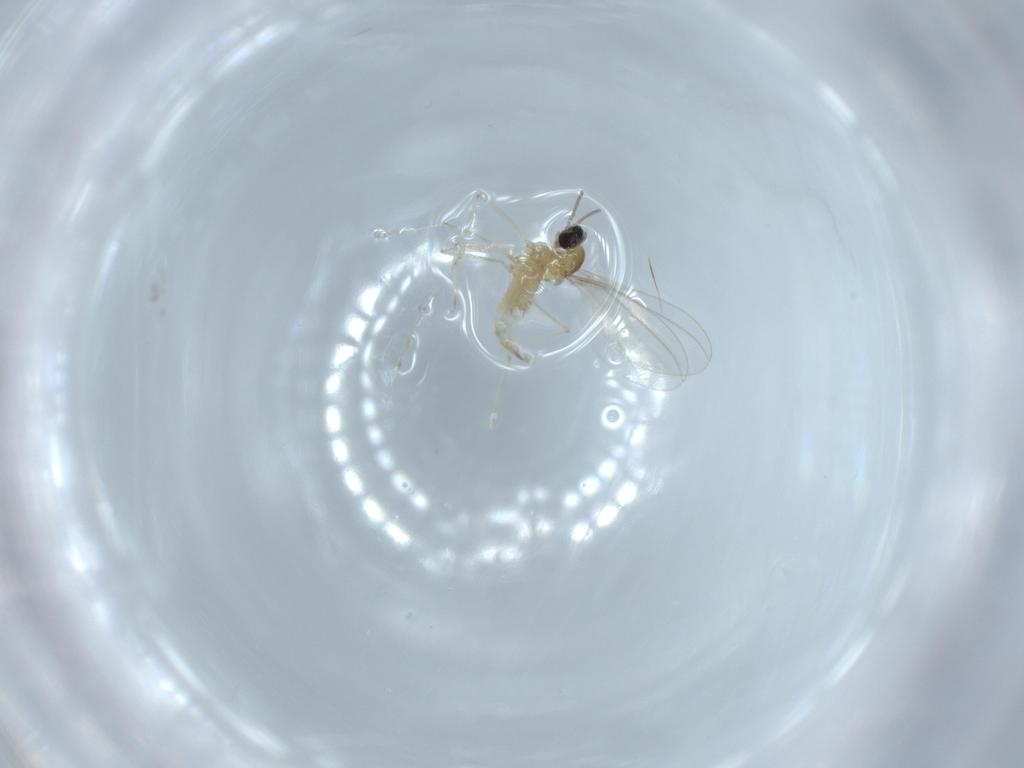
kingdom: Animalia
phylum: Arthropoda
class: Insecta
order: Diptera
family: Cecidomyiidae
